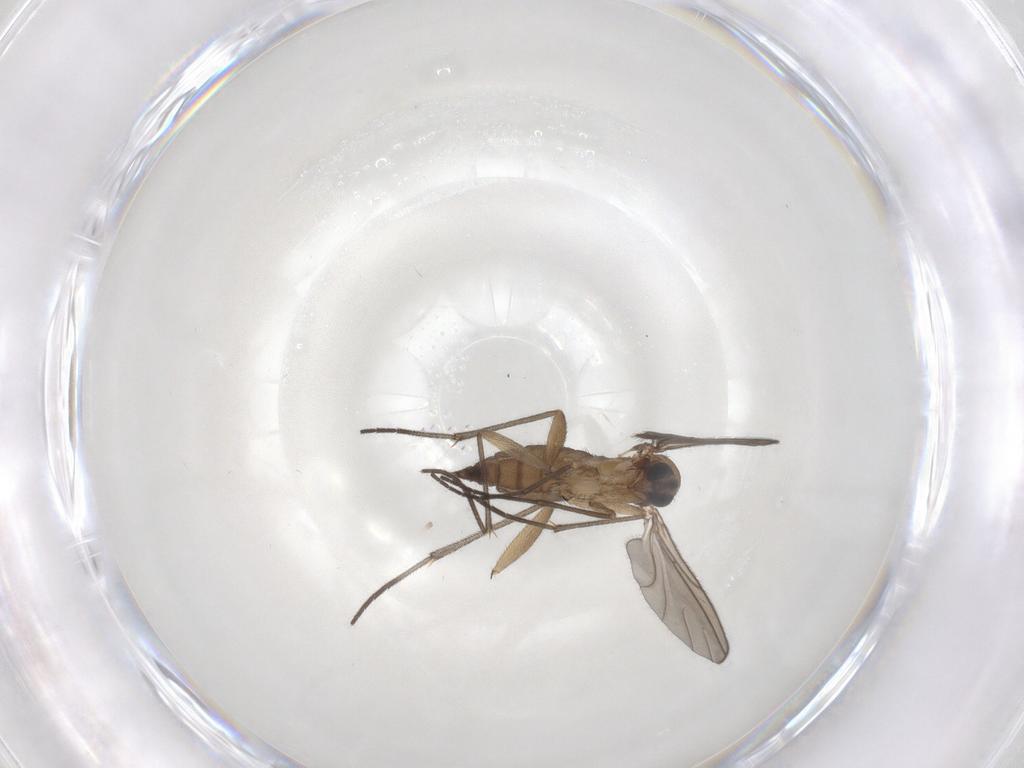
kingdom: Animalia
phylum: Arthropoda
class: Insecta
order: Diptera
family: Sciaridae
